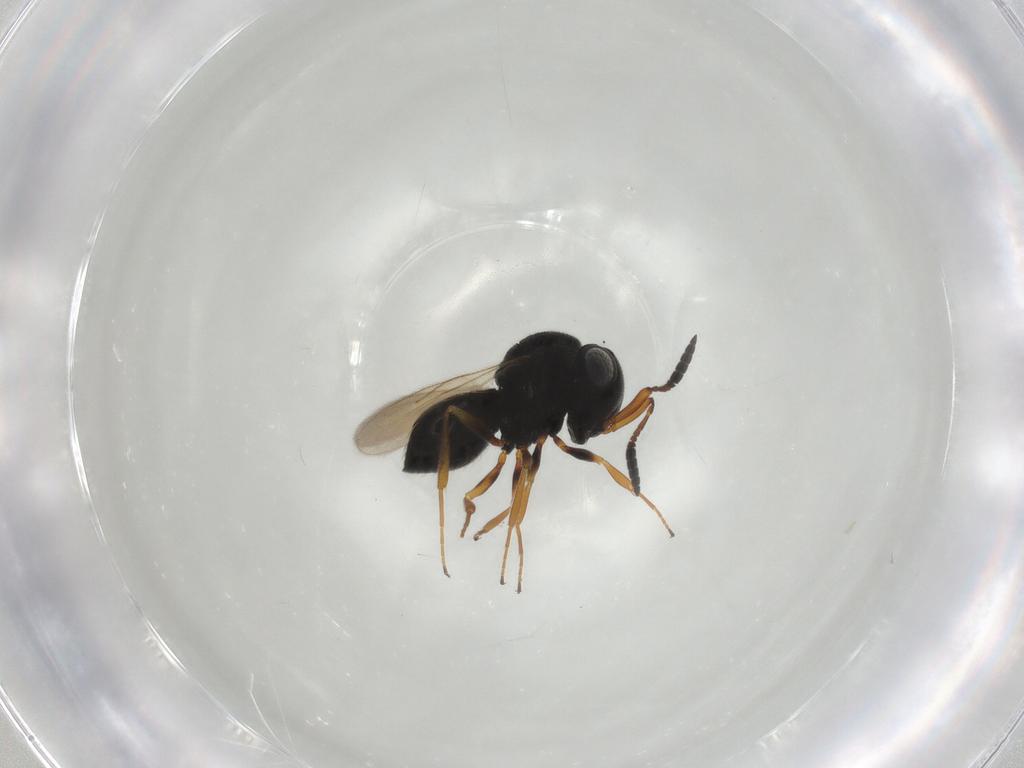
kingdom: Animalia
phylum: Arthropoda
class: Insecta
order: Hymenoptera
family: Scelionidae
